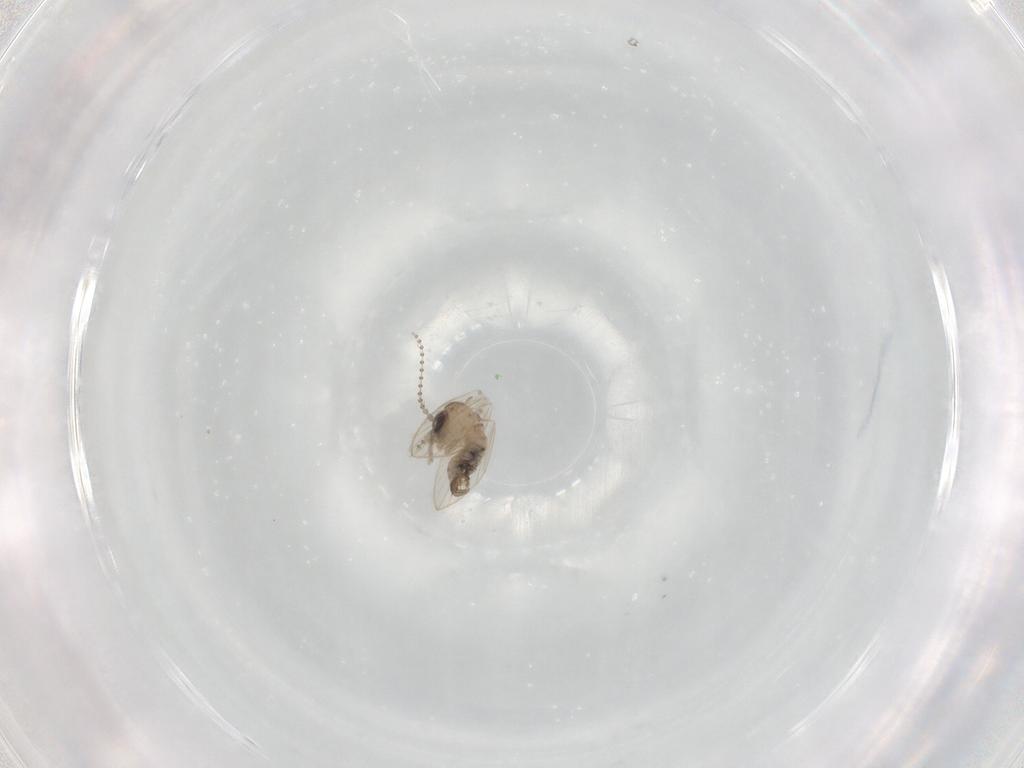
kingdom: Animalia
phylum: Arthropoda
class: Insecta
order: Diptera
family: Psychodidae
